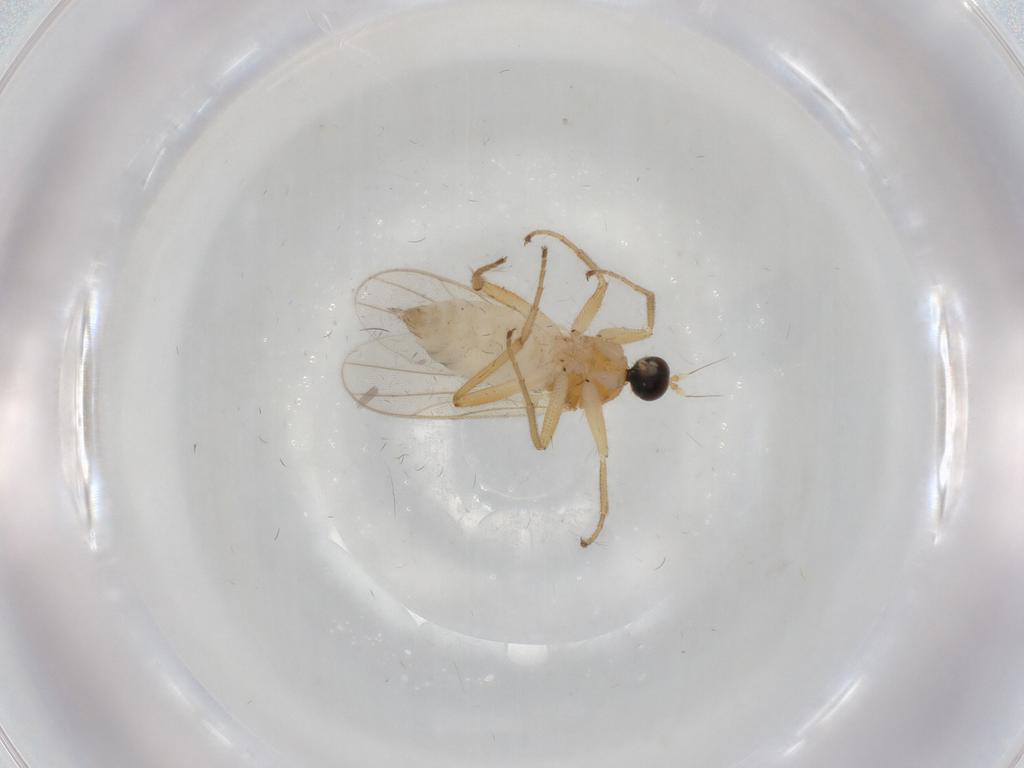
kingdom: Animalia
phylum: Arthropoda
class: Insecta
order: Diptera
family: Hybotidae
